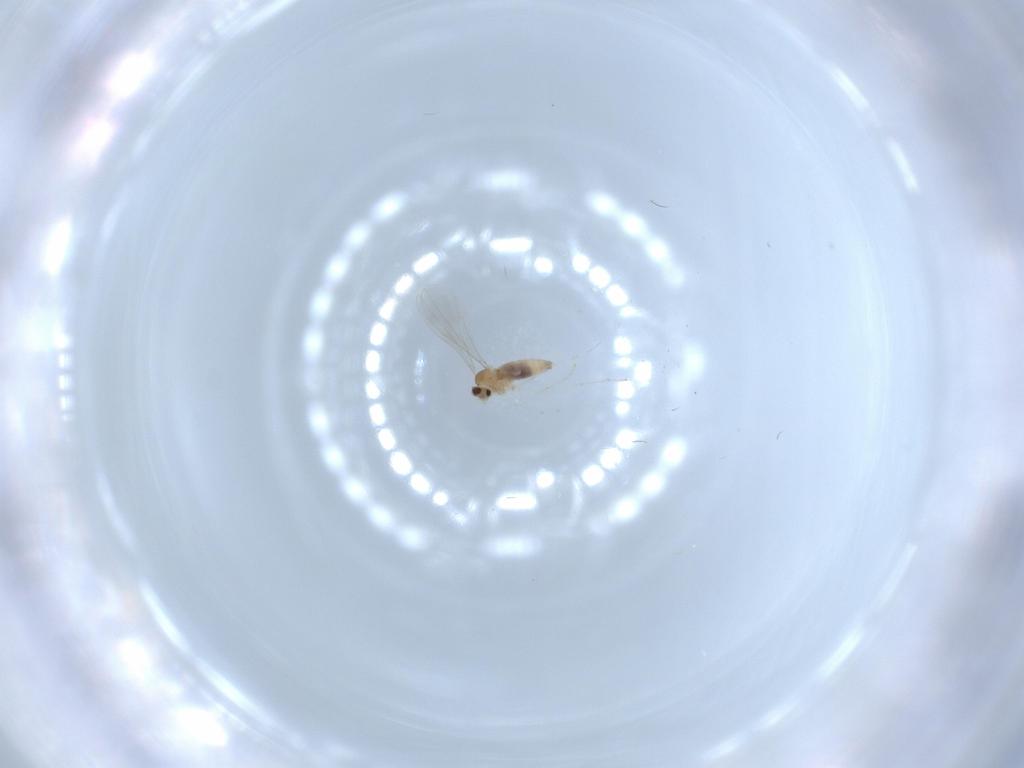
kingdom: Animalia
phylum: Arthropoda
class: Insecta
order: Diptera
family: Cecidomyiidae
